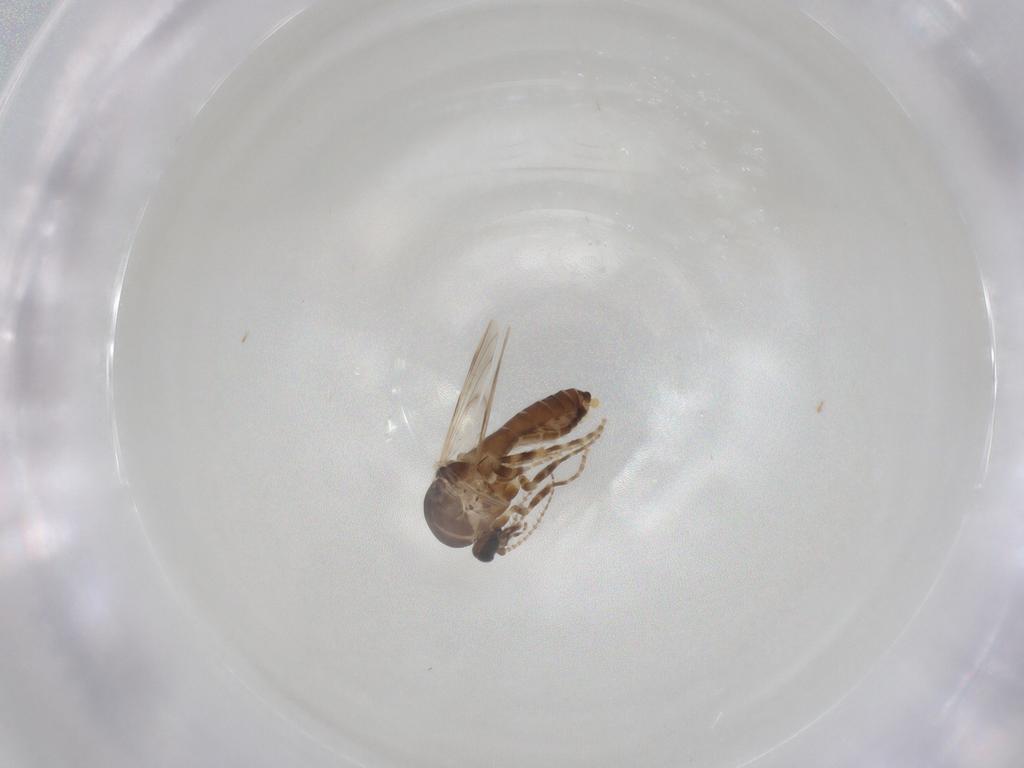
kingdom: Animalia
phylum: Arthropoda
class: Insecta
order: Diptera
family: Ceratopogonidae
